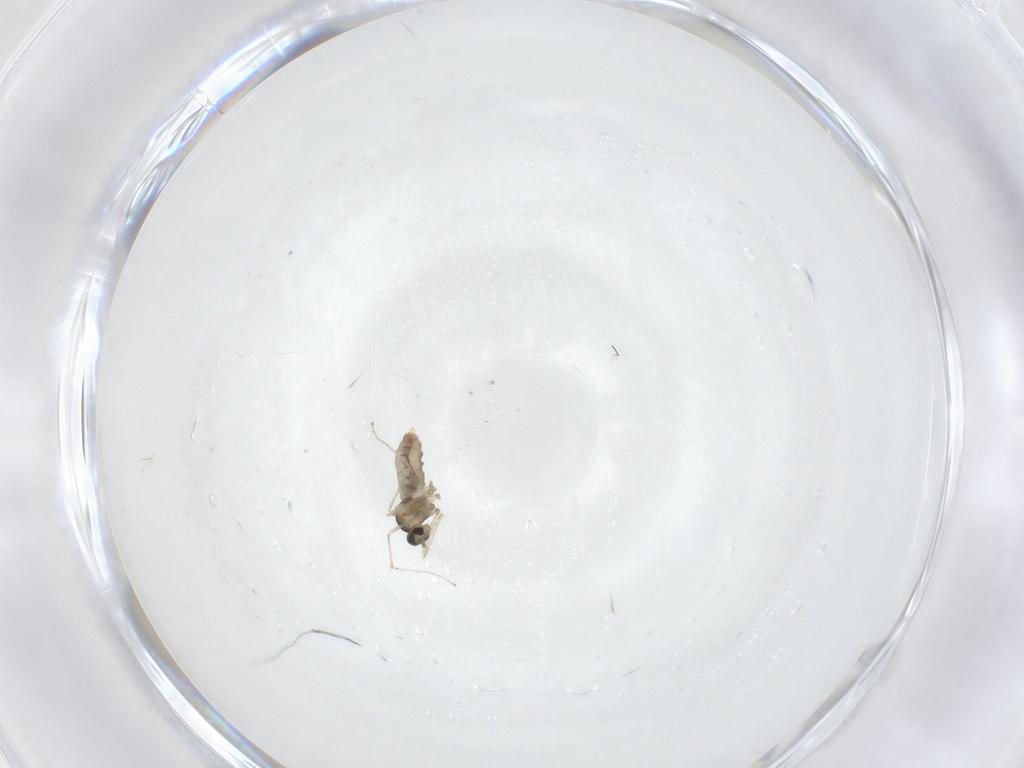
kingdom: Animalia
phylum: Arthropoda
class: Insecta
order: Diptera
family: Cecidomyiidae
